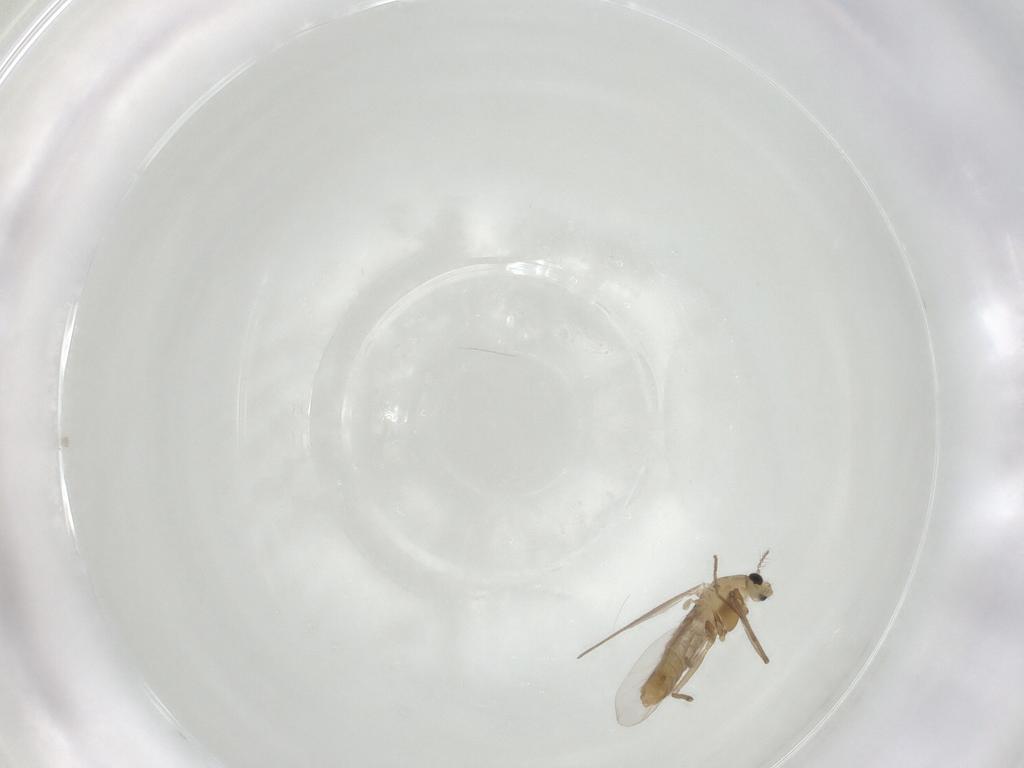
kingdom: Animalia
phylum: Arthropoda
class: Insecta
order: Diptera
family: Chironomidae
